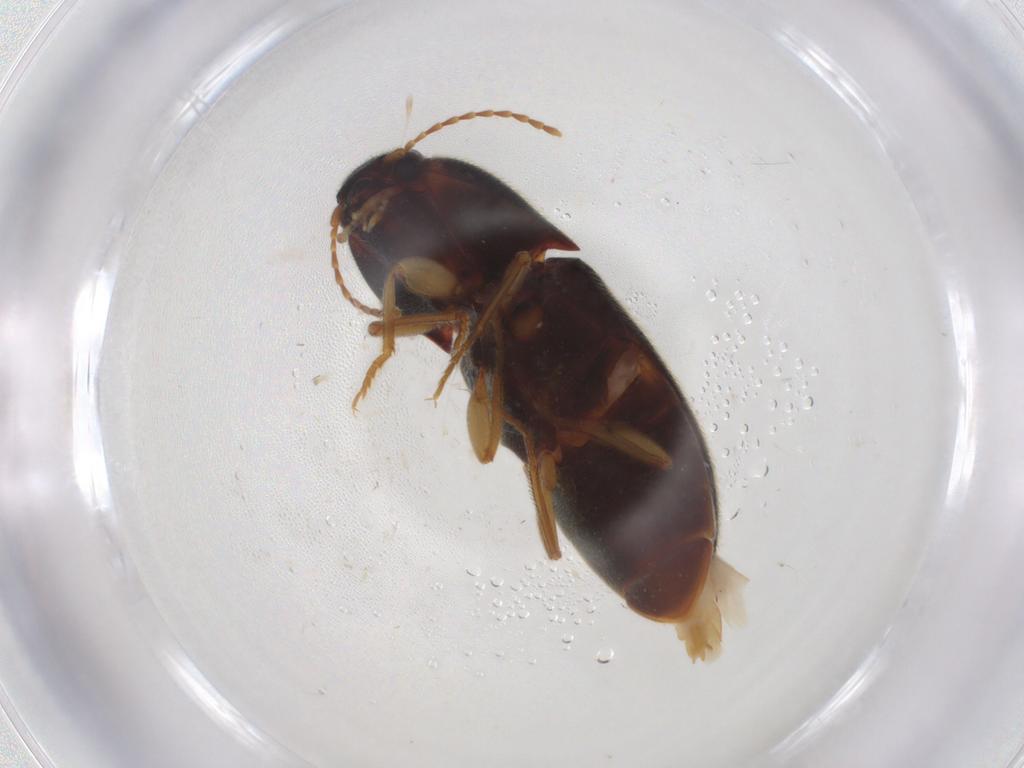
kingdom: Animalia
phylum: Arthropoda
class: Insecta
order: Coleoptera
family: Elateridae
